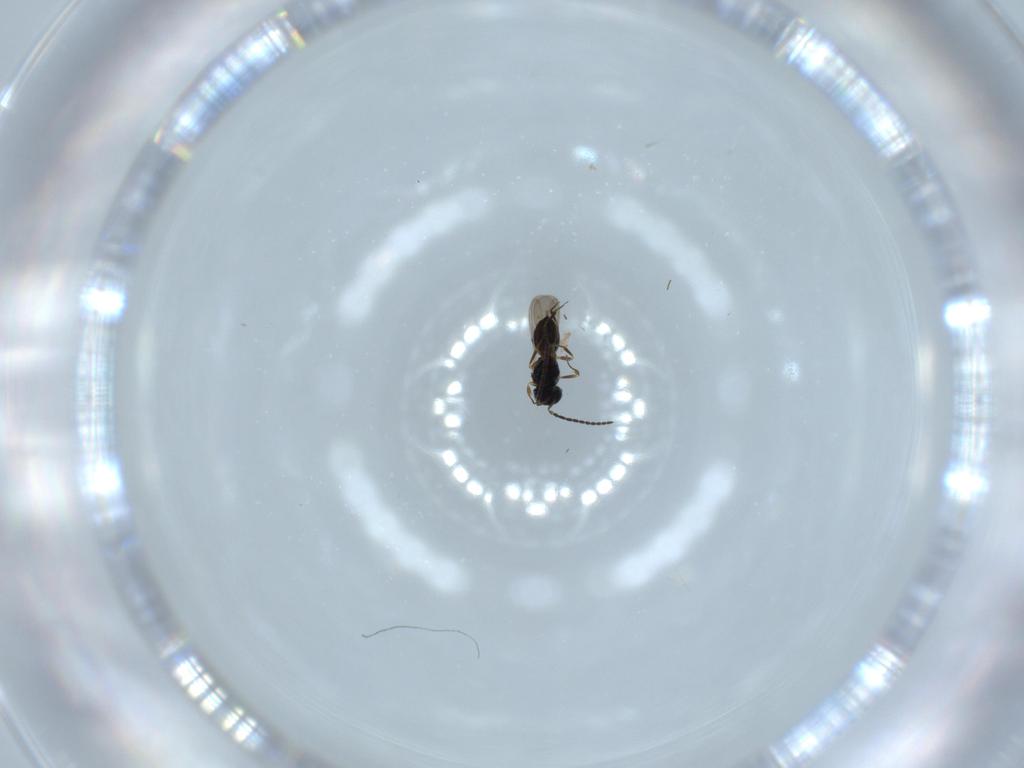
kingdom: Animalia
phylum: Arthropoda
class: Insecta
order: Hymenoptera
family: Scelionidae
